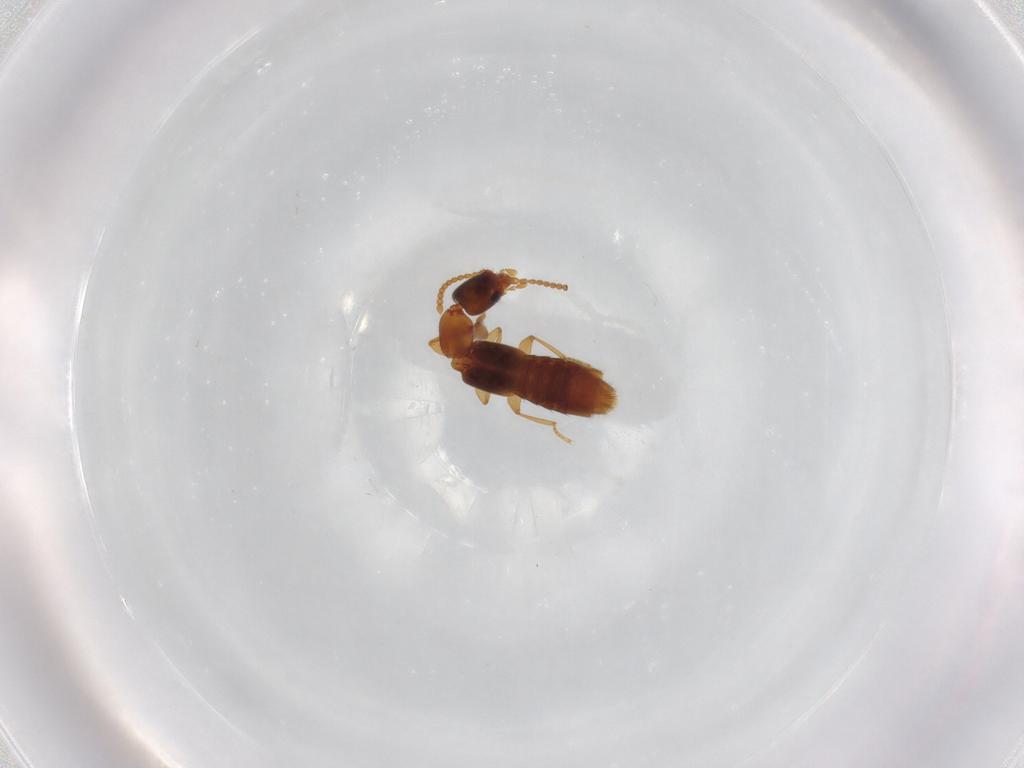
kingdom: Animalia
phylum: Arthropoda
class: Insecta
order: Coleoptera
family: Staphylinidae
